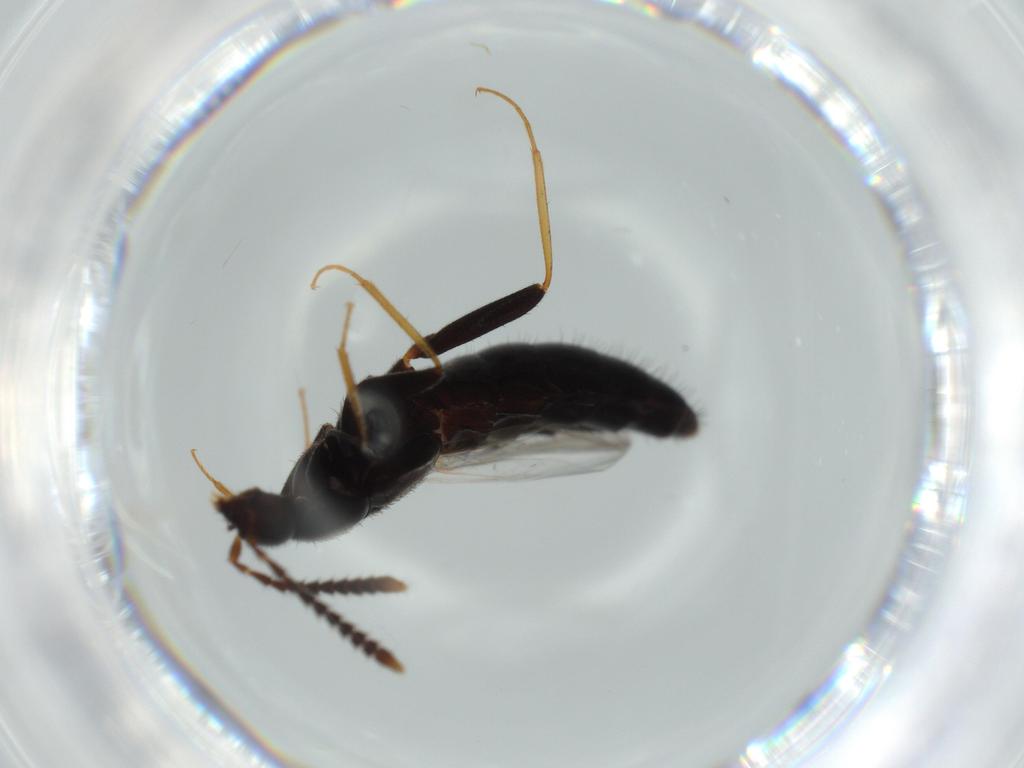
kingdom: Animalia
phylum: Arthropoda
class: Insecta
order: Coleoptera
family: Staphylinidae
